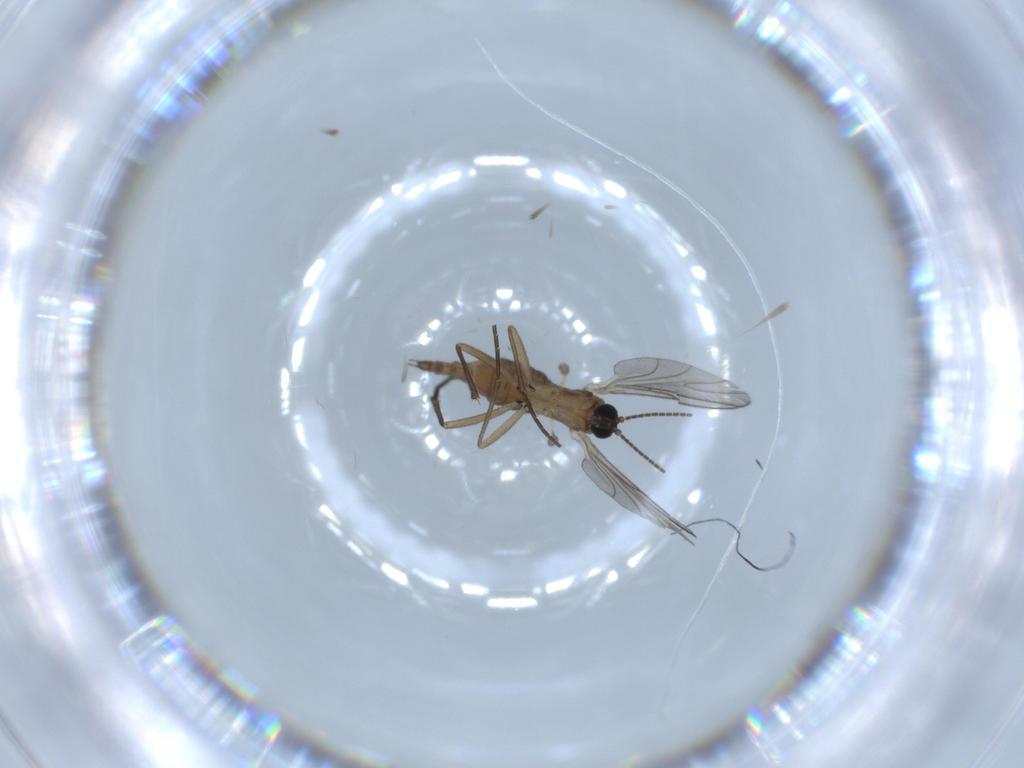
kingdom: Animalia
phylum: Arthropoda
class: Insecta
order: Diptera
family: Chloropidae
